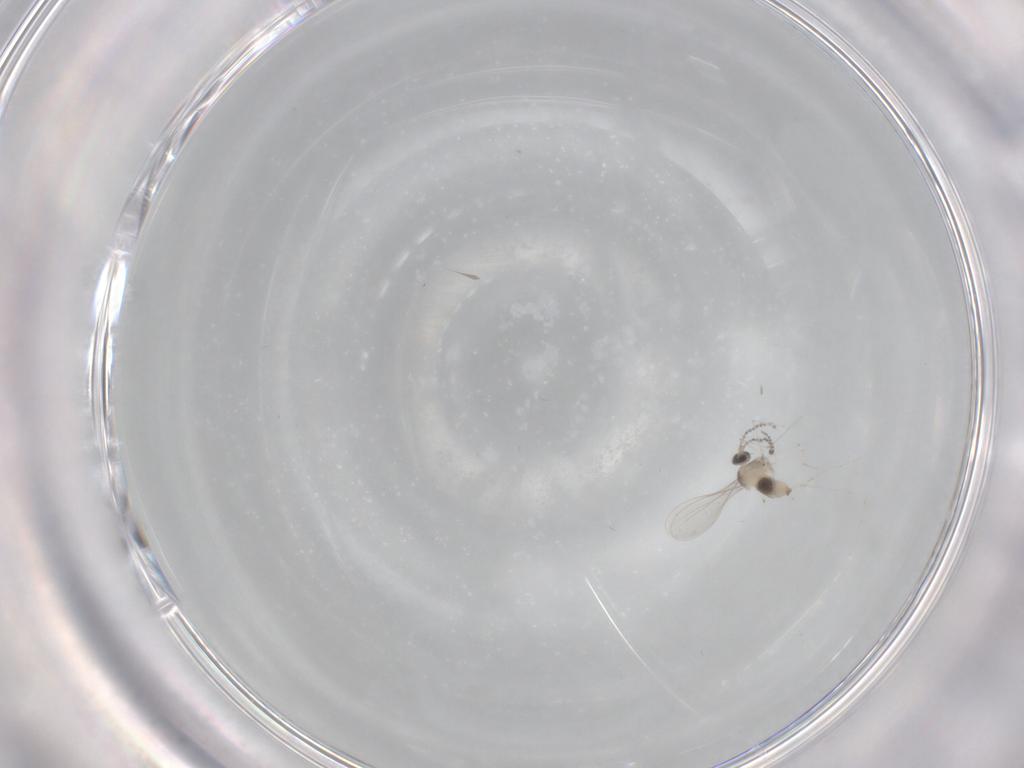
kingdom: Animalia
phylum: Arthropoda
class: Insecta
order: Diptera
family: Cecidomyiidae
